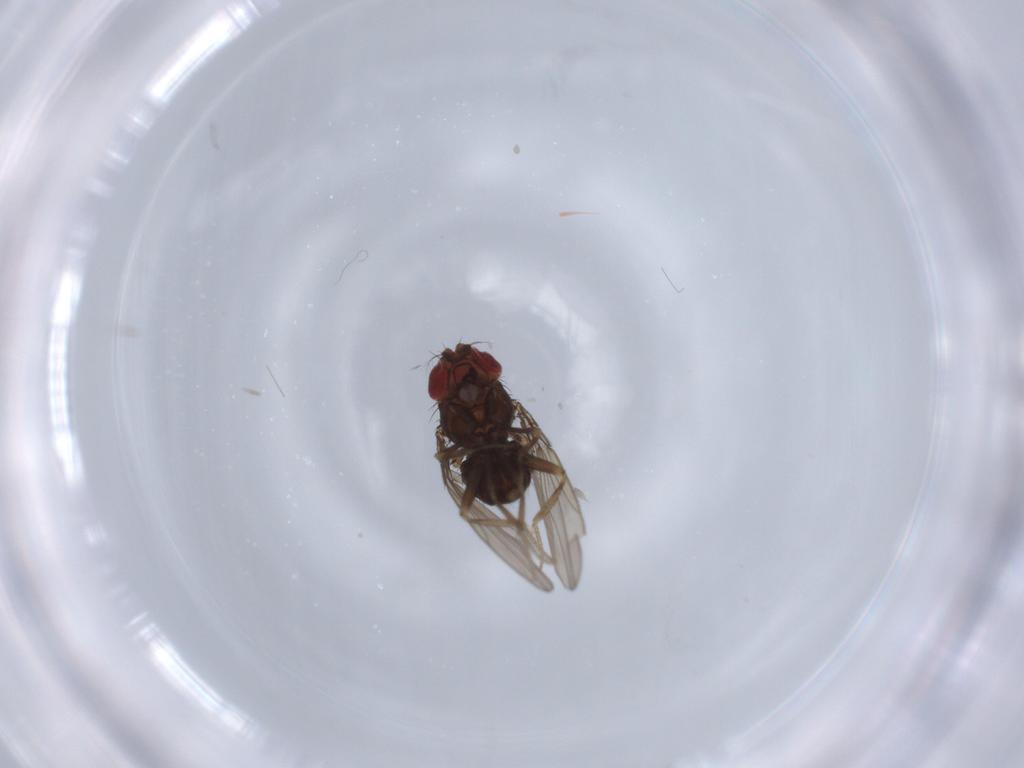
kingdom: Animalia
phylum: Arthropoda
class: Insecta
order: Diptera
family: Drosophilidae
